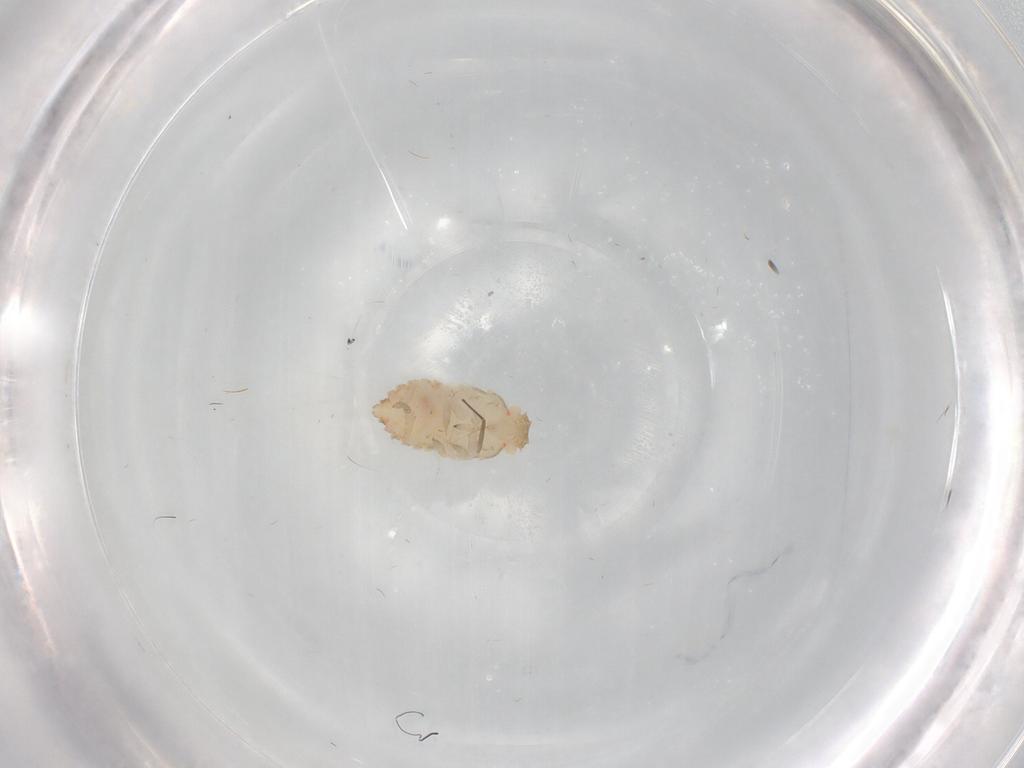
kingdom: Animalia
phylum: Arthropoda
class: Insecta
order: Hemiptera
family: Derbidae
